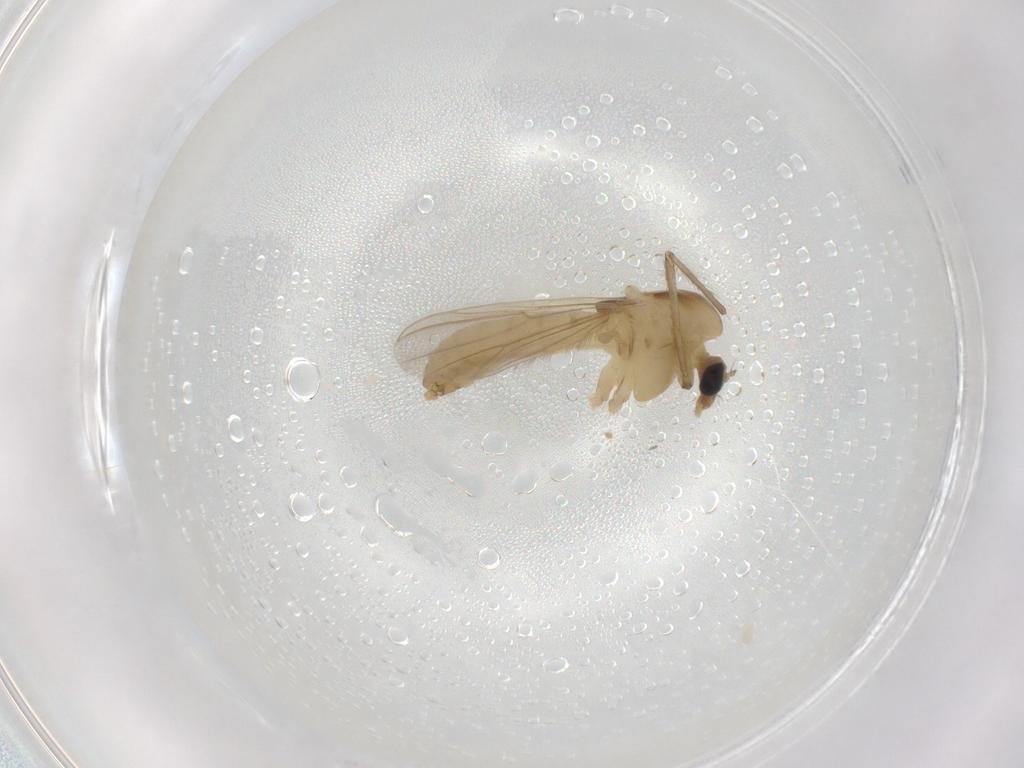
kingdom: Animalia
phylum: Arthropoda
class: Insecta
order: Diptera
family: Chironomidae
